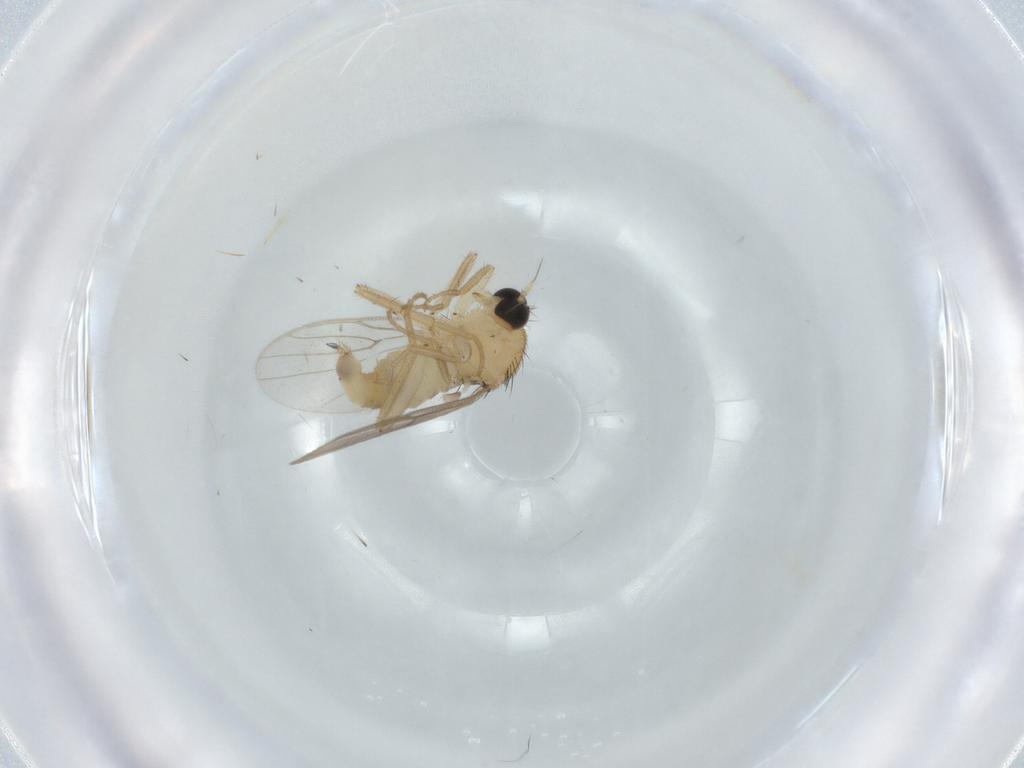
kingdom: Animalia
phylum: Arthropoda
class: Insecta
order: Diptera
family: Hybotidae
